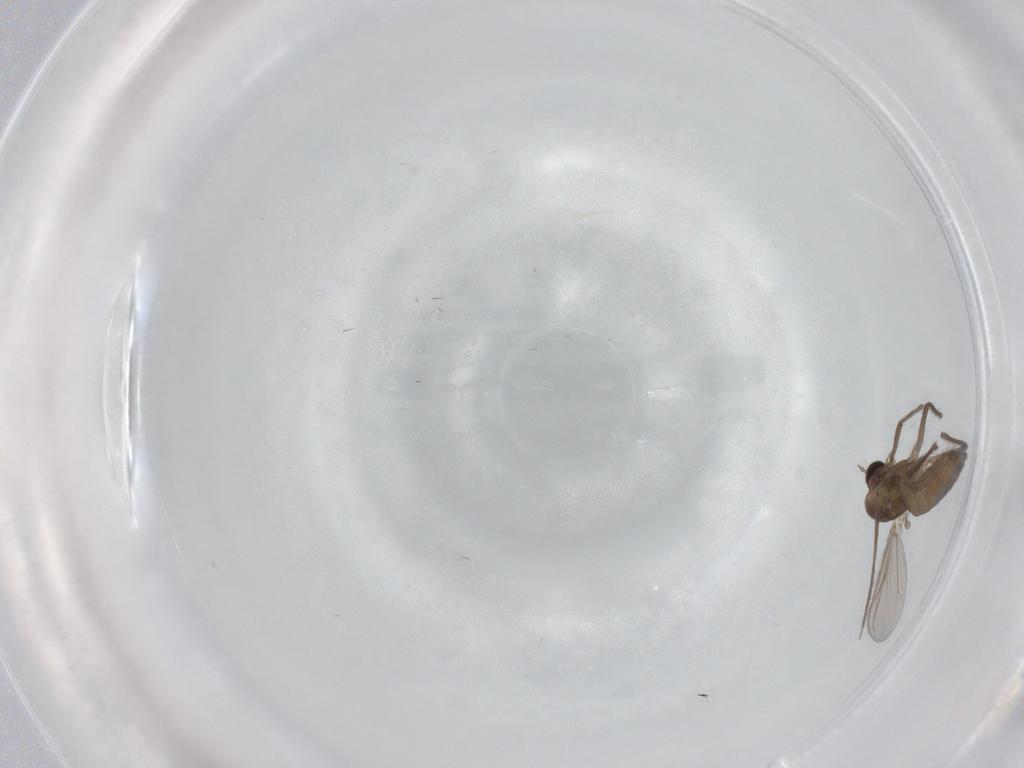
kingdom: Animalia
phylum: Arthropoda
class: Insecta
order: Diptera
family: Chironomidae
